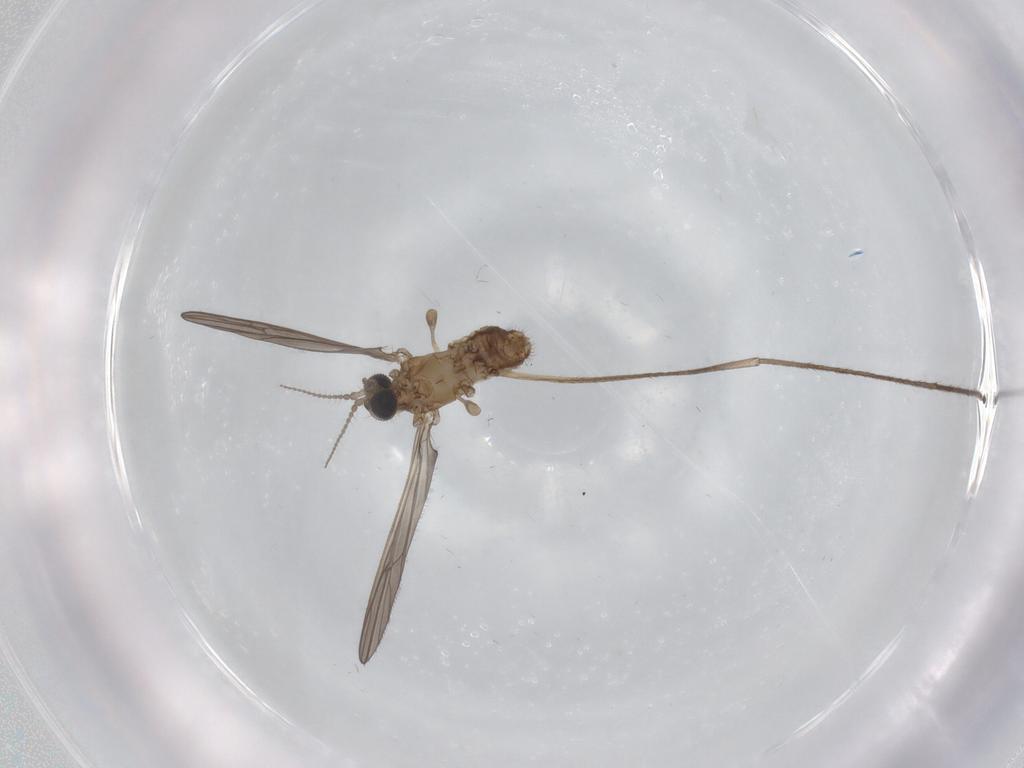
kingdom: Animalia
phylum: Arthropoda
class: Insecta
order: Diptera
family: Limoniidae
